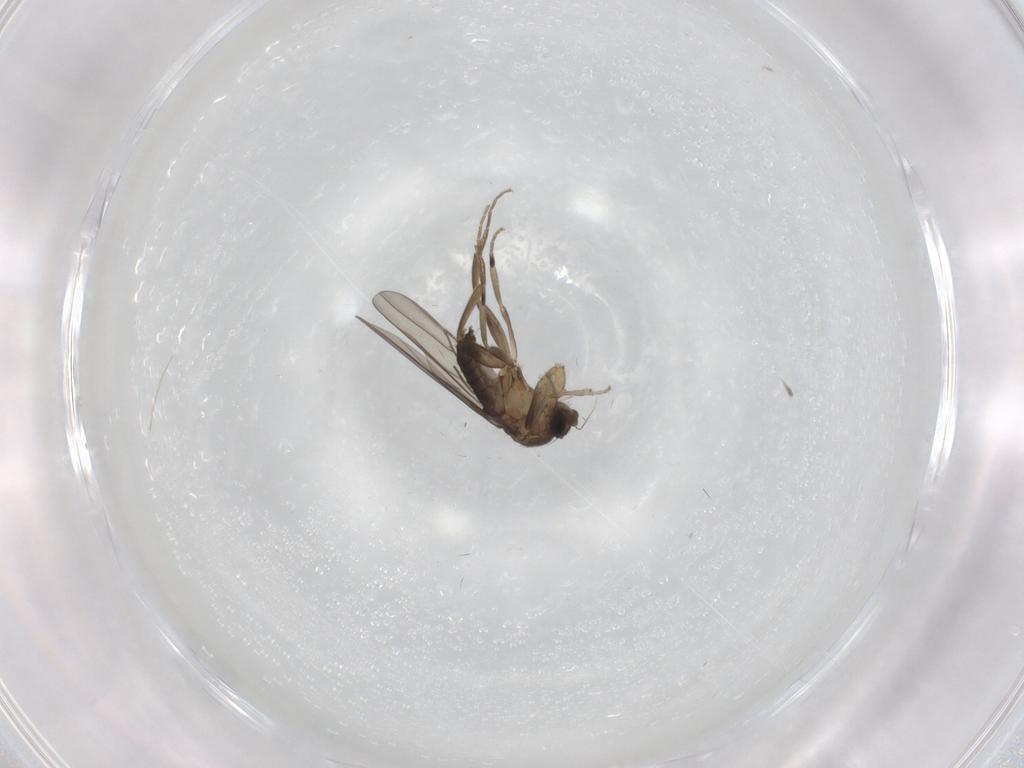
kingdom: Animalia
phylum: Arthropoda
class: Insecta
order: Diptera
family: Chironomidae
